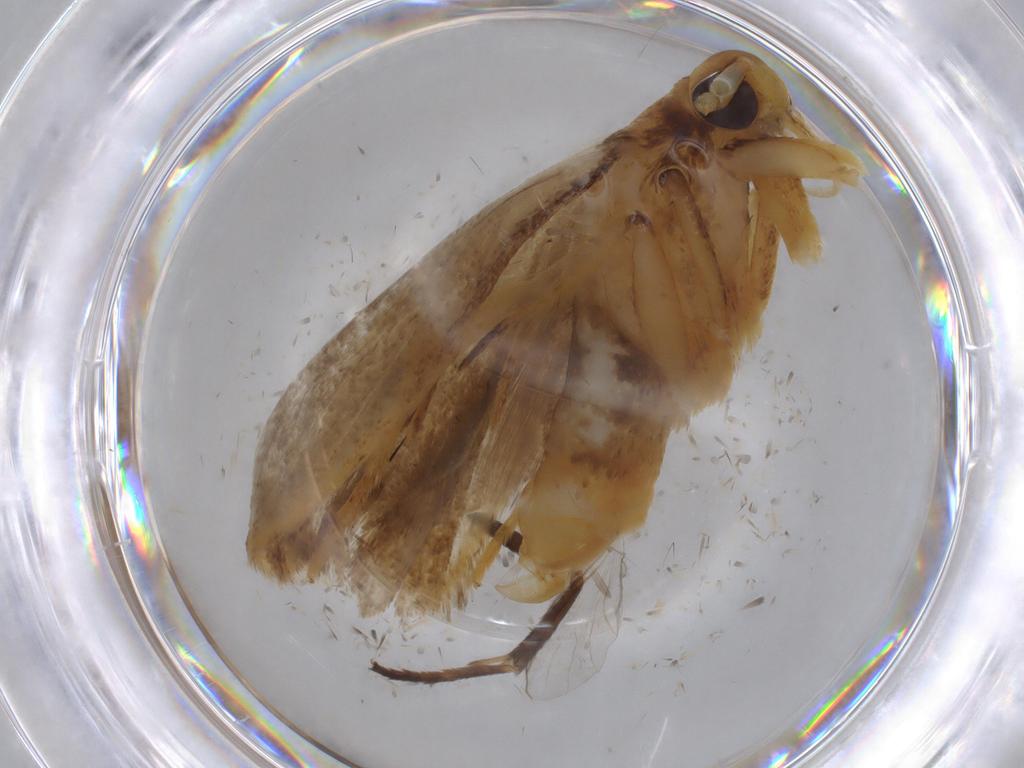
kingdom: Animalia
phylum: Arthropoda
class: Insecta
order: Lepidoptera
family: Lecithoceridae
